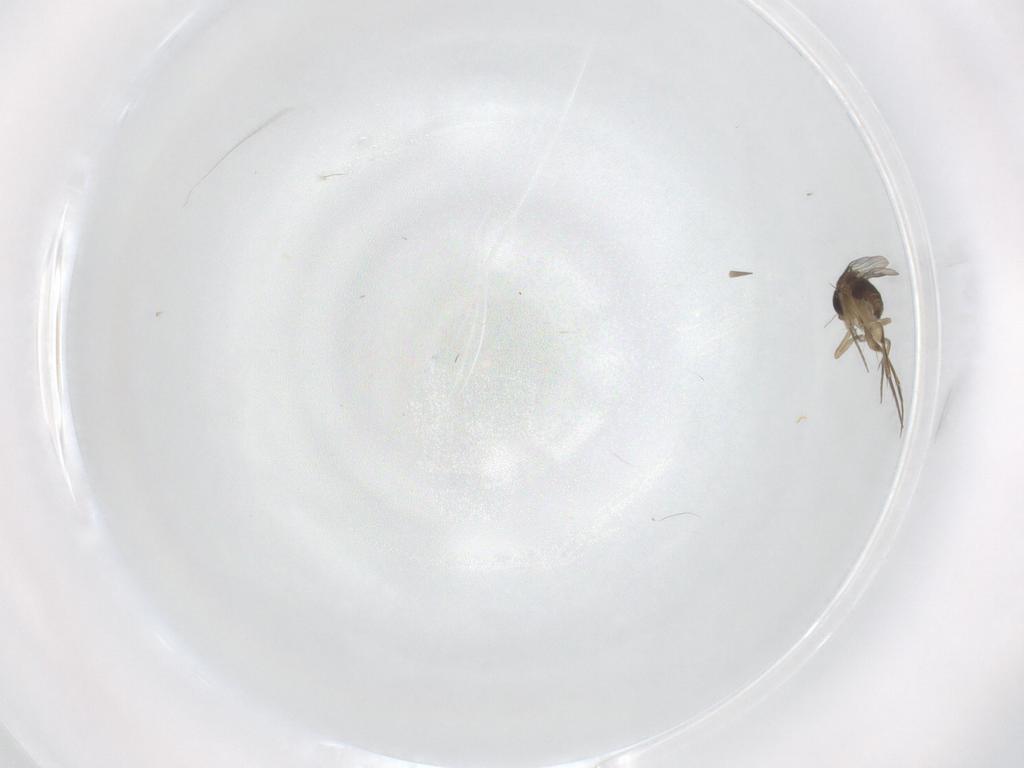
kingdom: Animalia
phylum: Arthropoda
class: Insecta
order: Diptera
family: Phoridae
